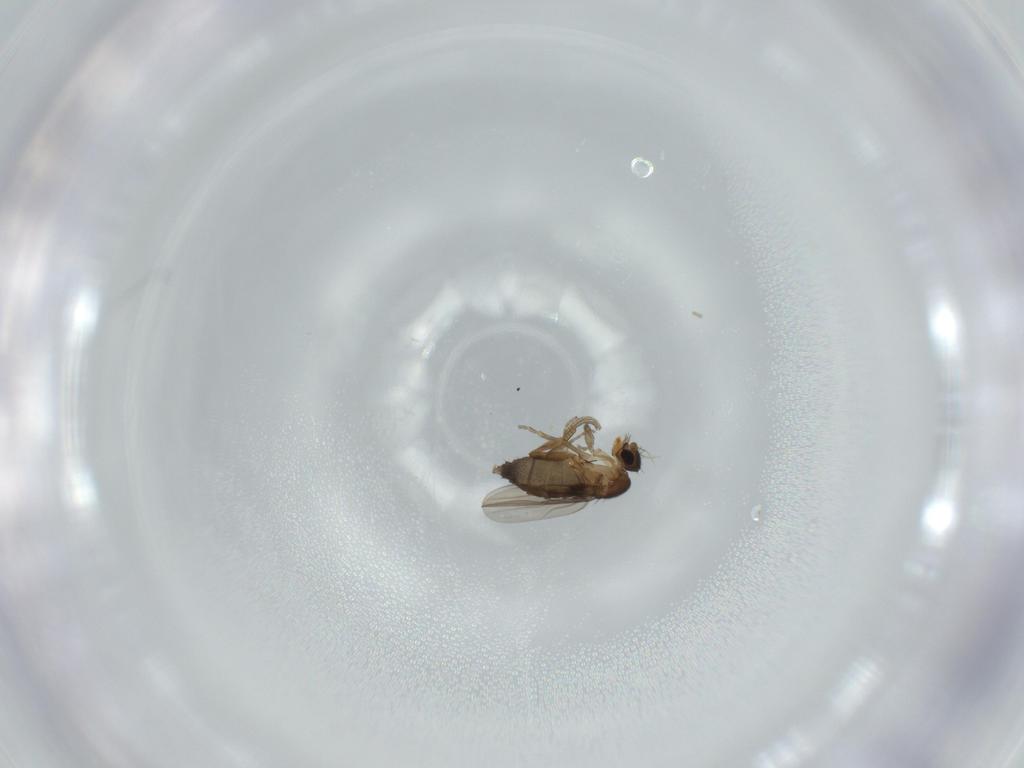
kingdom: Animalia
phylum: Arthropoda
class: Insecta
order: Diptera
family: Phoridae
